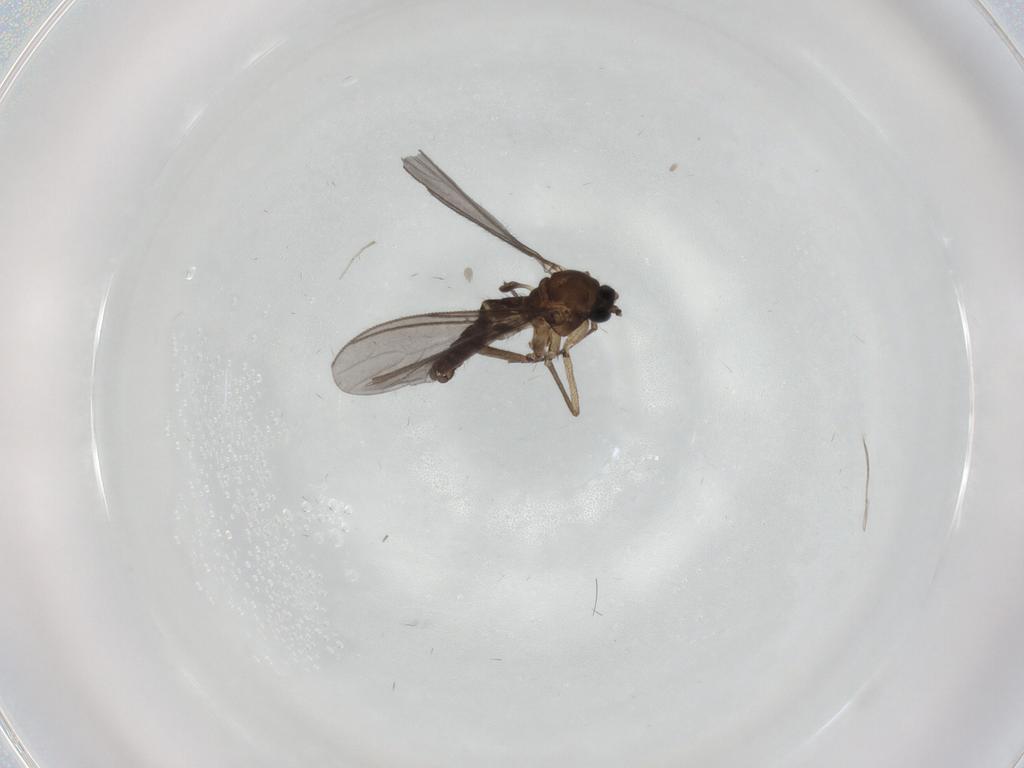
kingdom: Animalia
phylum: Arthropoda
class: Insecta
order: Diptera
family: Sciaridae
